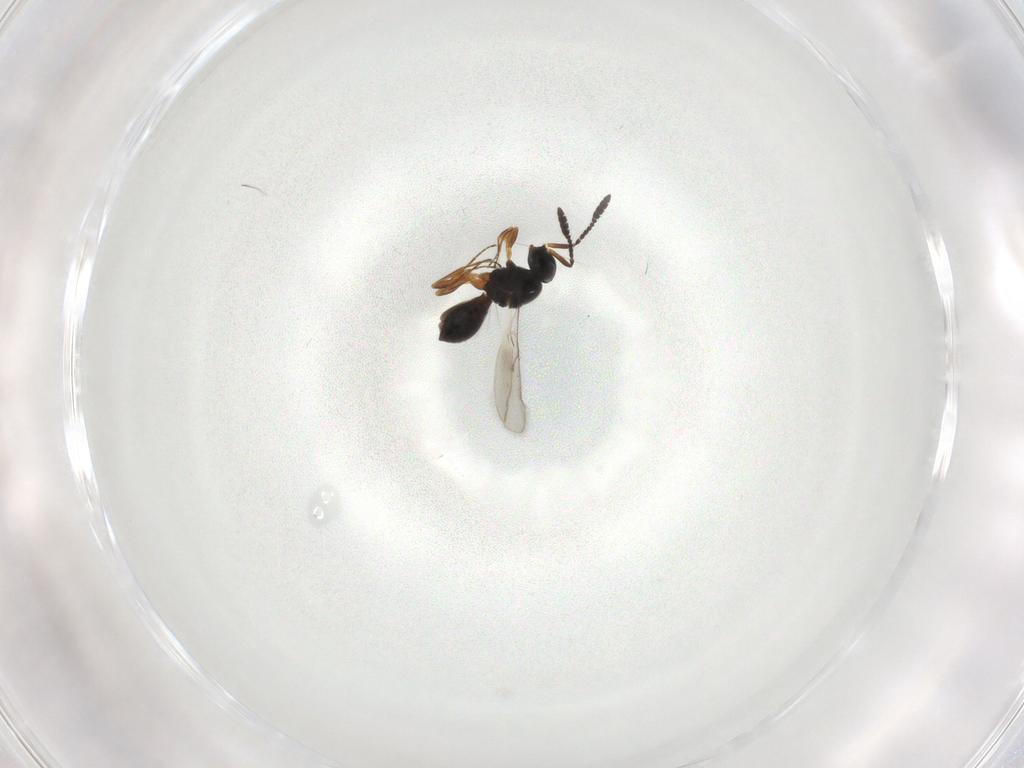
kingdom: Animalia
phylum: Arthropoda
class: Insecta
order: Hymenoptera
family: Scelionidae
